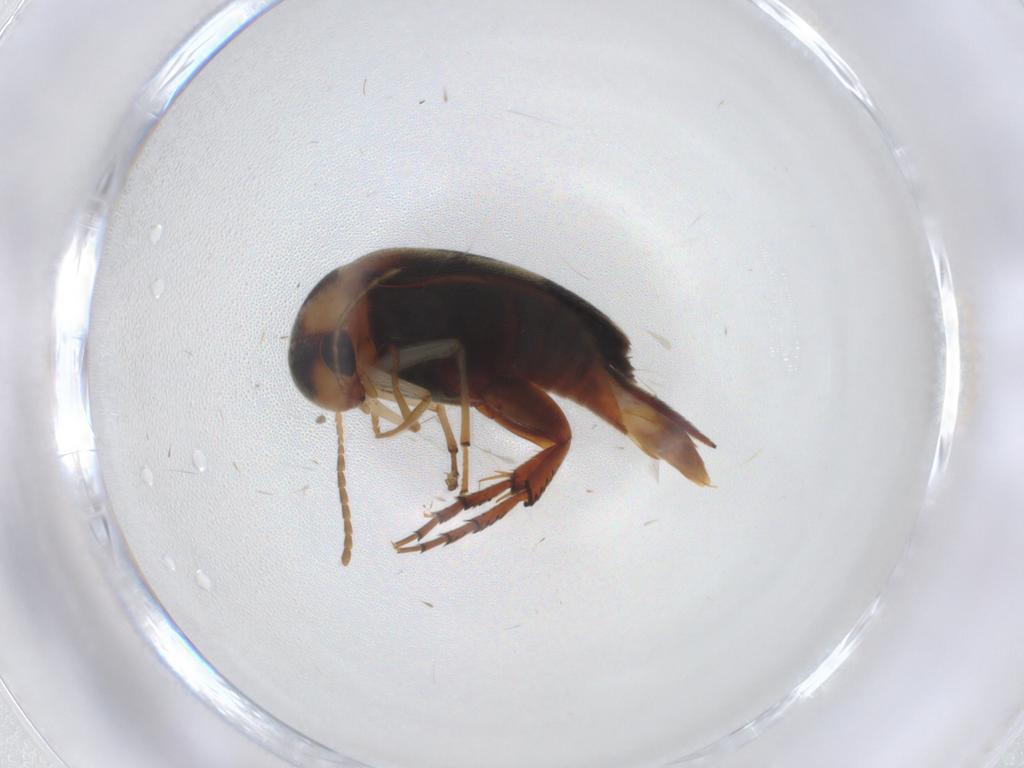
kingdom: Animalia
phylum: Arthropoda
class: Insecta
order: Coleoptera
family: Mordellidae
